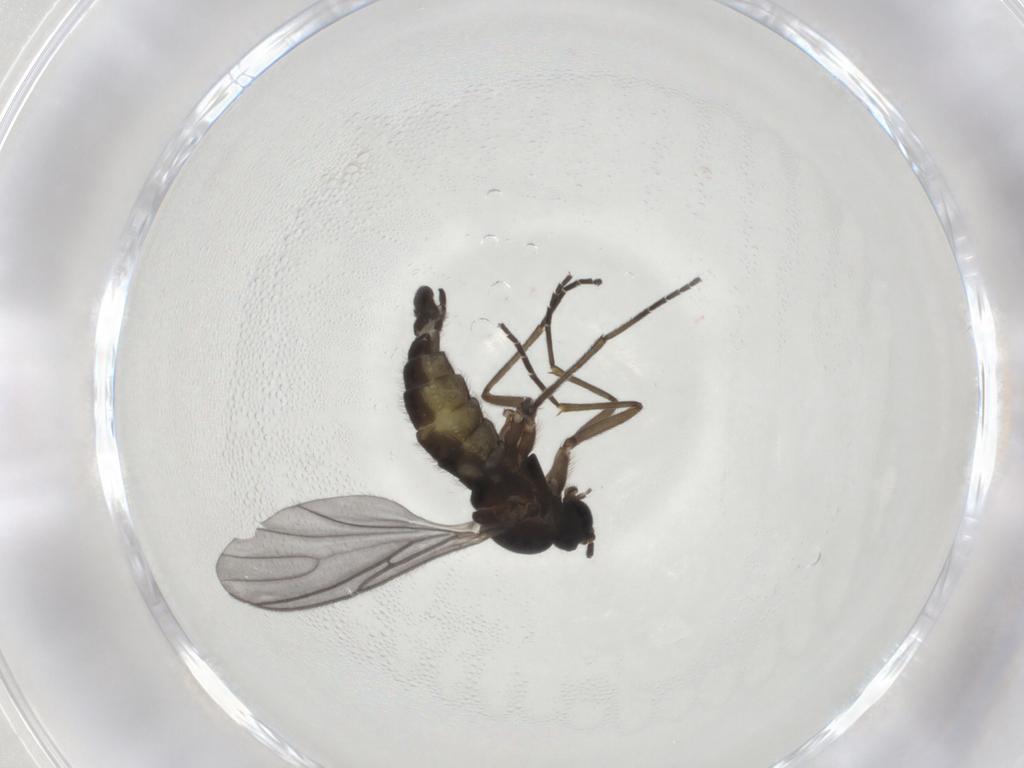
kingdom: Animalia
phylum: Arthropoda
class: Insecta
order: Diptera
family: Sciaridae
